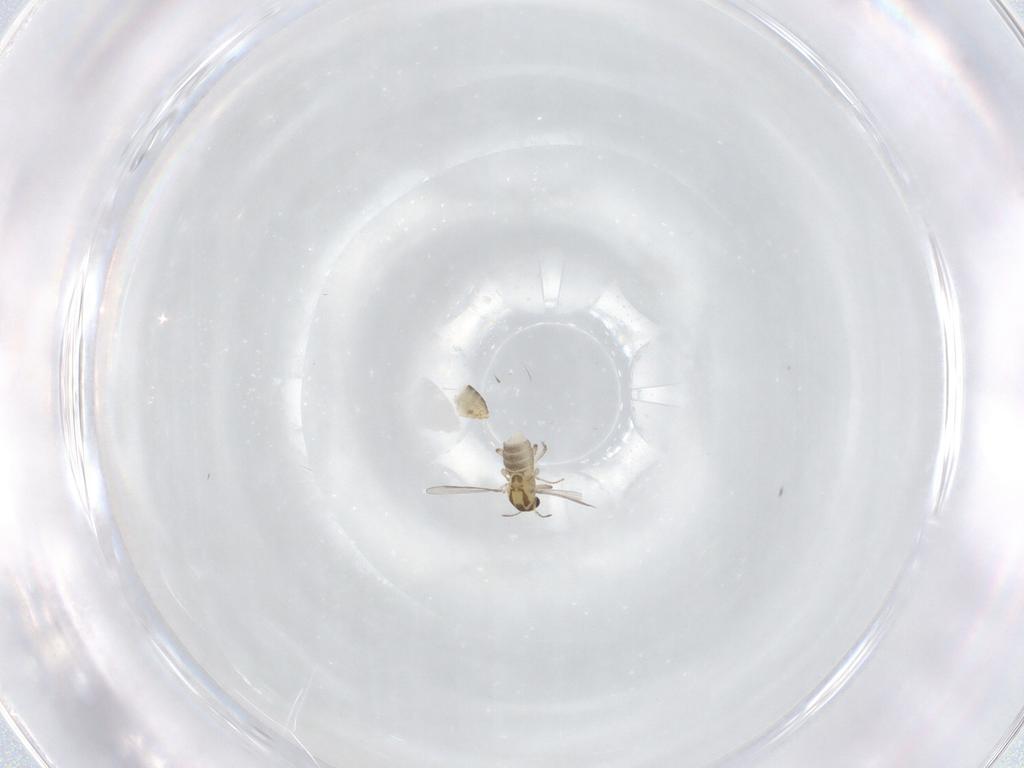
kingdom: Animalia
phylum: Arthropoda
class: Insecta
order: Diptera
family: Chironomidae
